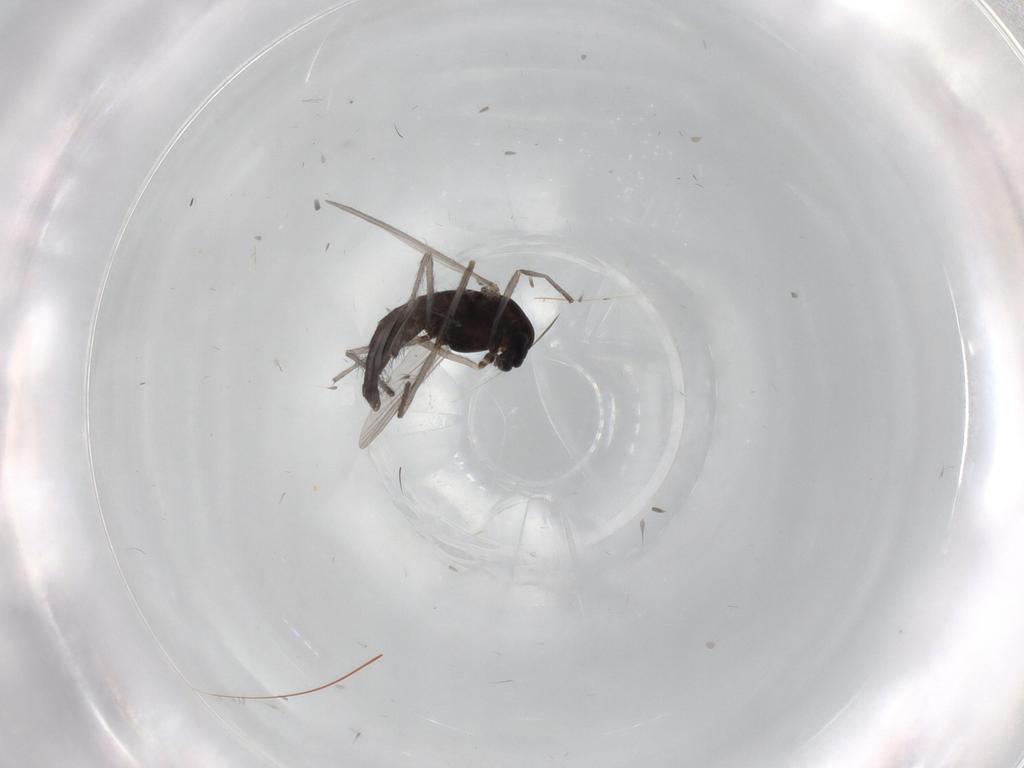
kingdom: Animalia
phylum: Arthropoda
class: Insecta
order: Diptera
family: Chironomidae
